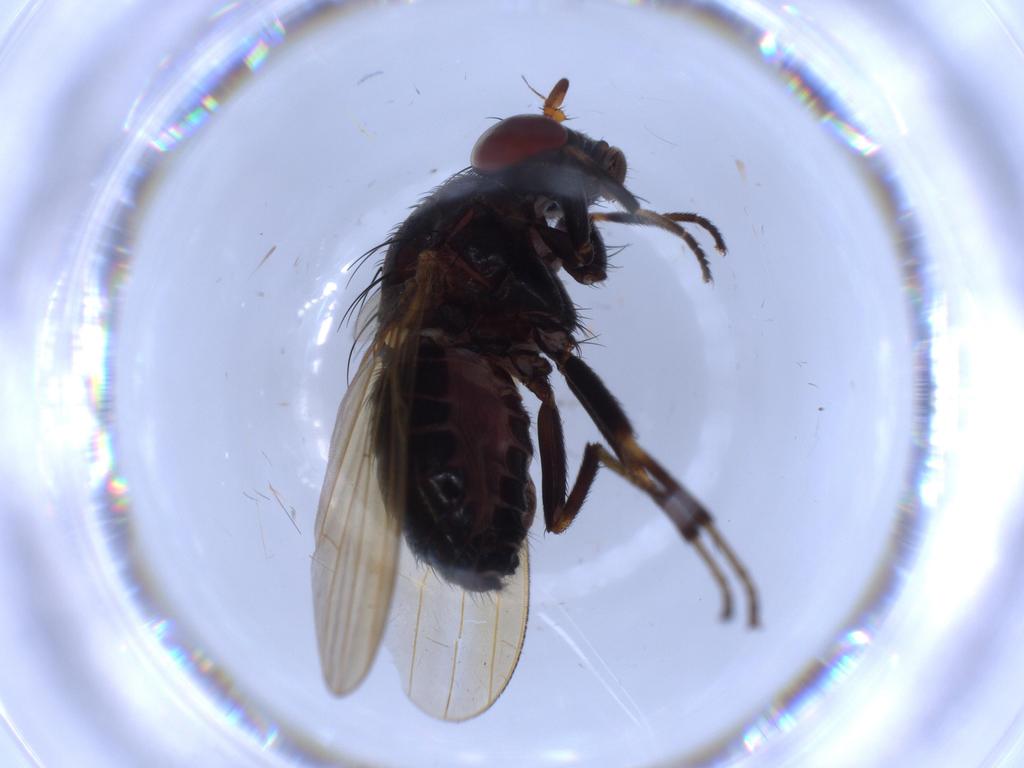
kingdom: Animalia
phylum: Arthropoda
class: Insecta
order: Diptera
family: Lauxaniidae
